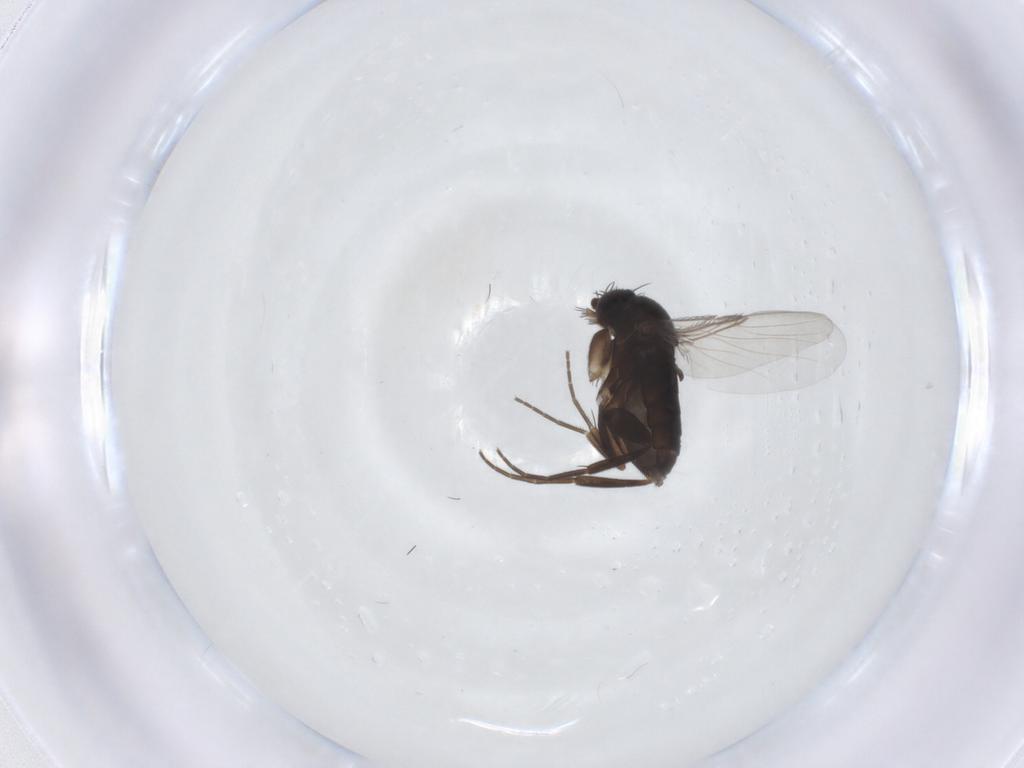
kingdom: Animalia
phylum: Arthropoda
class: Insecta
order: Diptera
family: Phoridae
